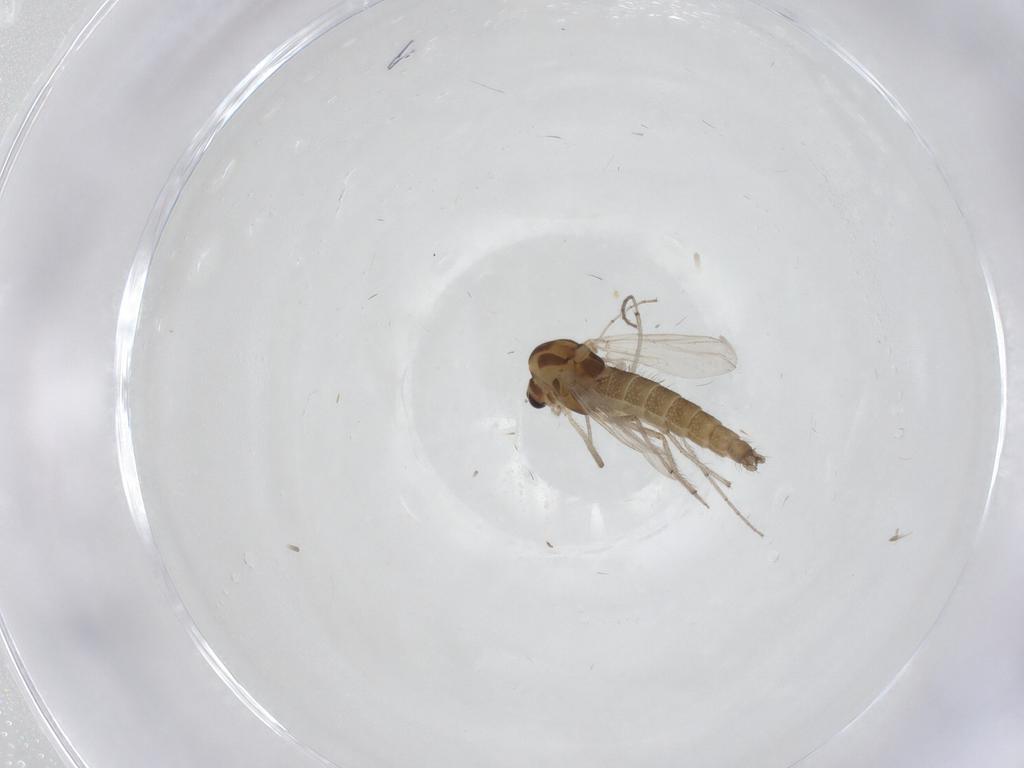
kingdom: Animalia
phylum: Arthropoda
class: Insecta
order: Diptera
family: Chironomidae
